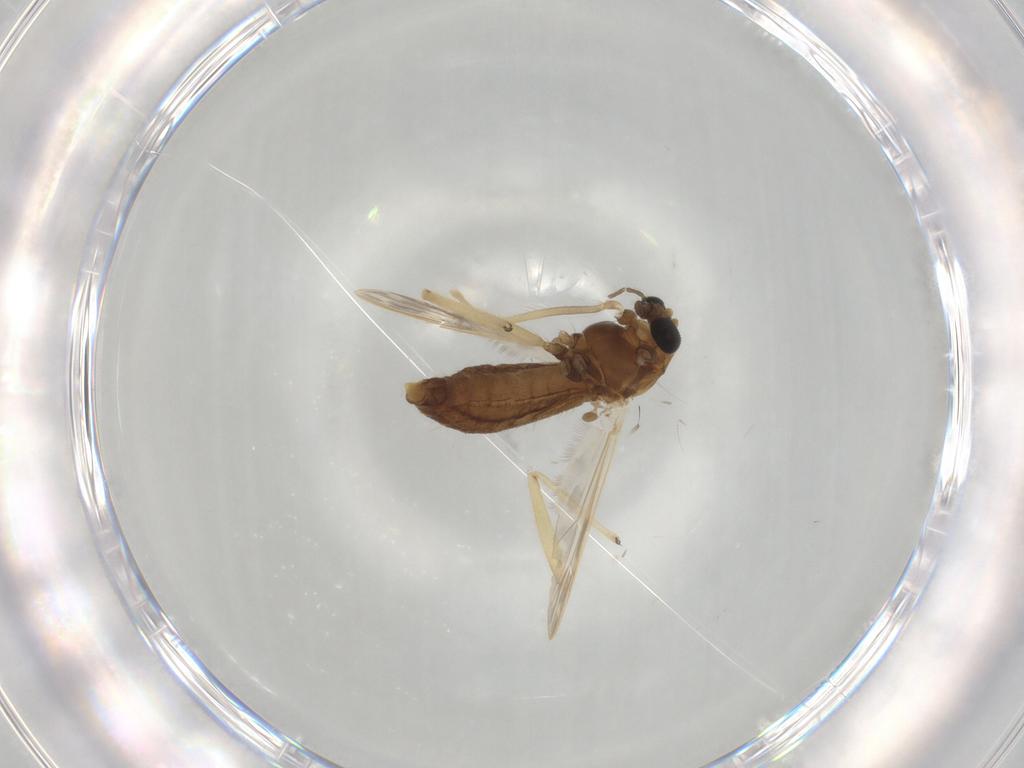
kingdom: Animalia
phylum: Arthropoda
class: Insecta
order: Diptera
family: Chironomidae
